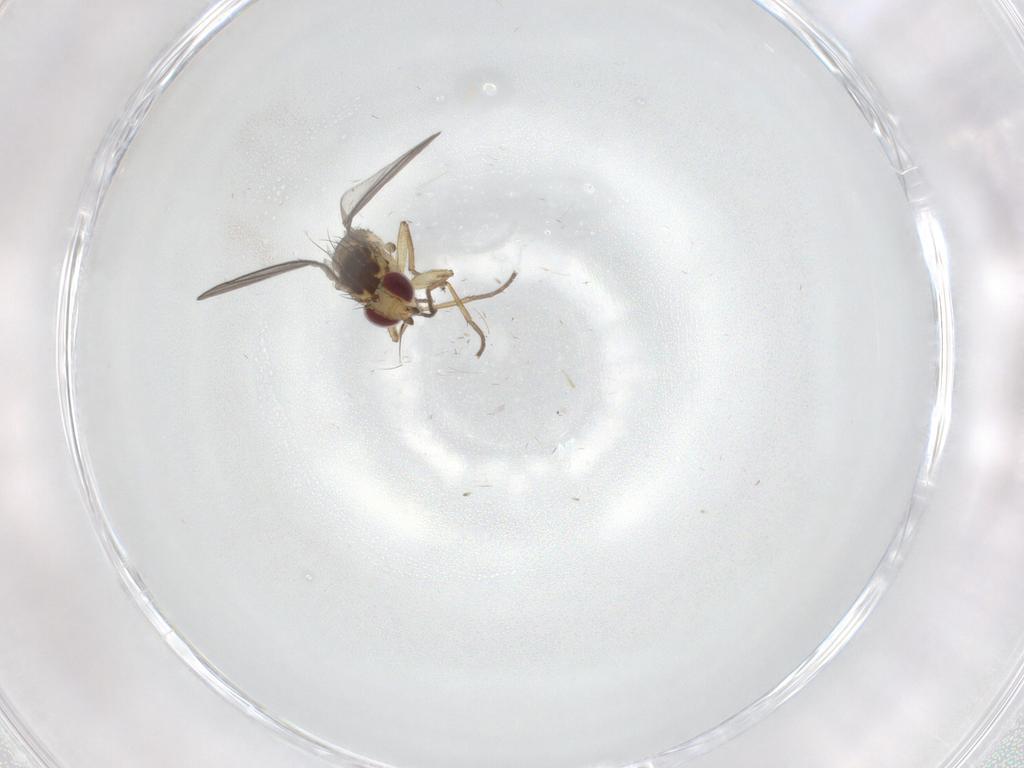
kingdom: Animalia
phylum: Arthropoda
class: Insecta
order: Diptera
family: Agromyzidae
